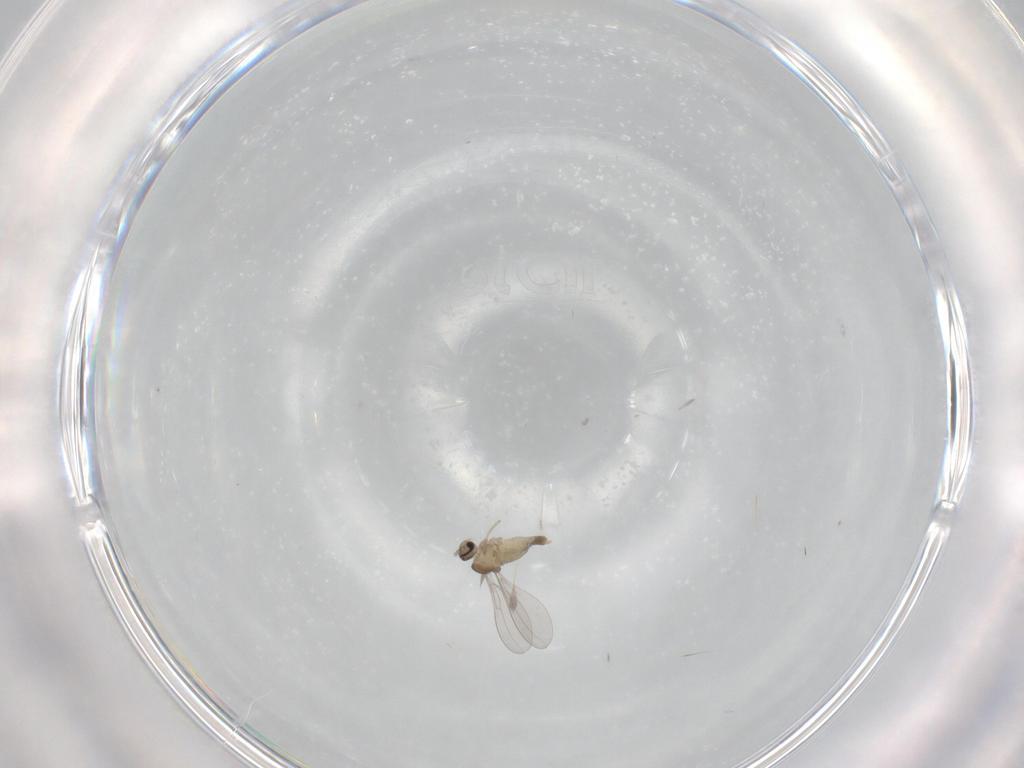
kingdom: Animalia
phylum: Arthropoda
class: Insecta
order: Diptera
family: Cecidomyiidae
